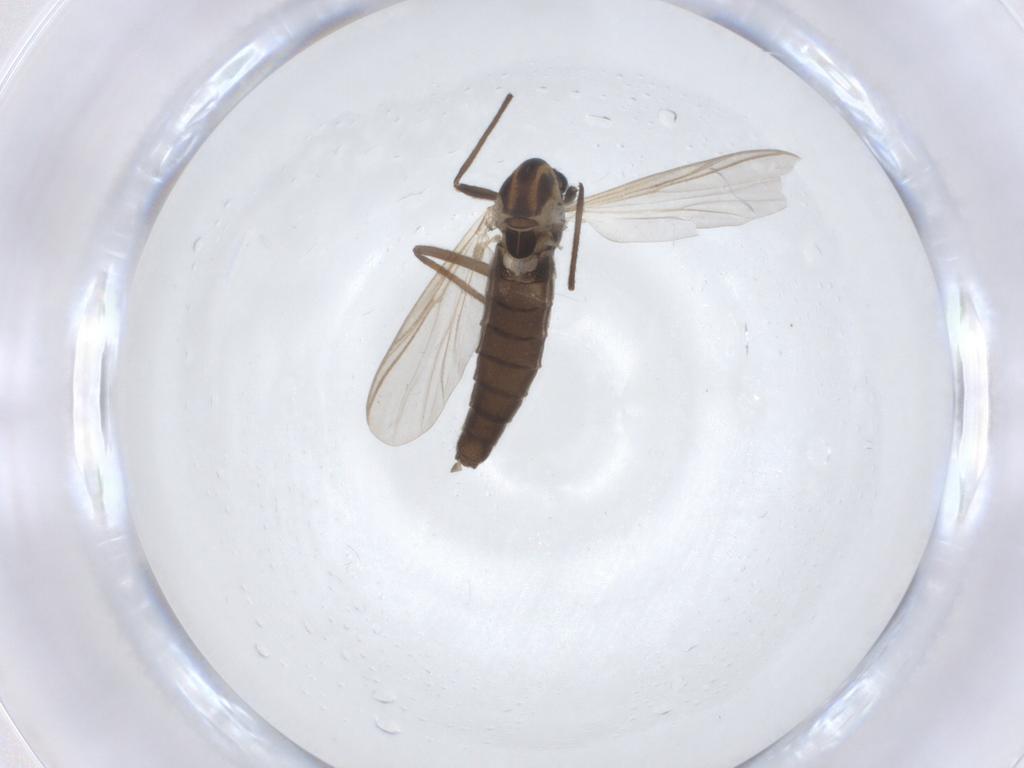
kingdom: Animalia
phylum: Arthropoda
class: Insecta
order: Diptera
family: Chironomidae
